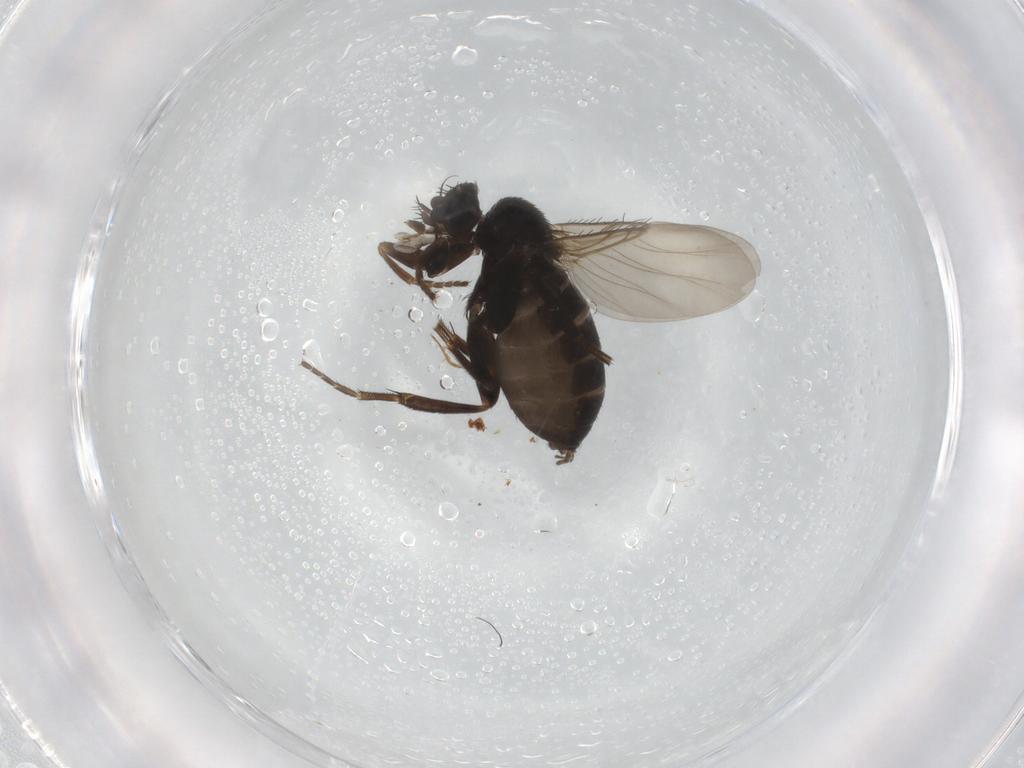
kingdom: Animalia
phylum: Arthropoda
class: Insecta
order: Diptera
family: Phoridae
